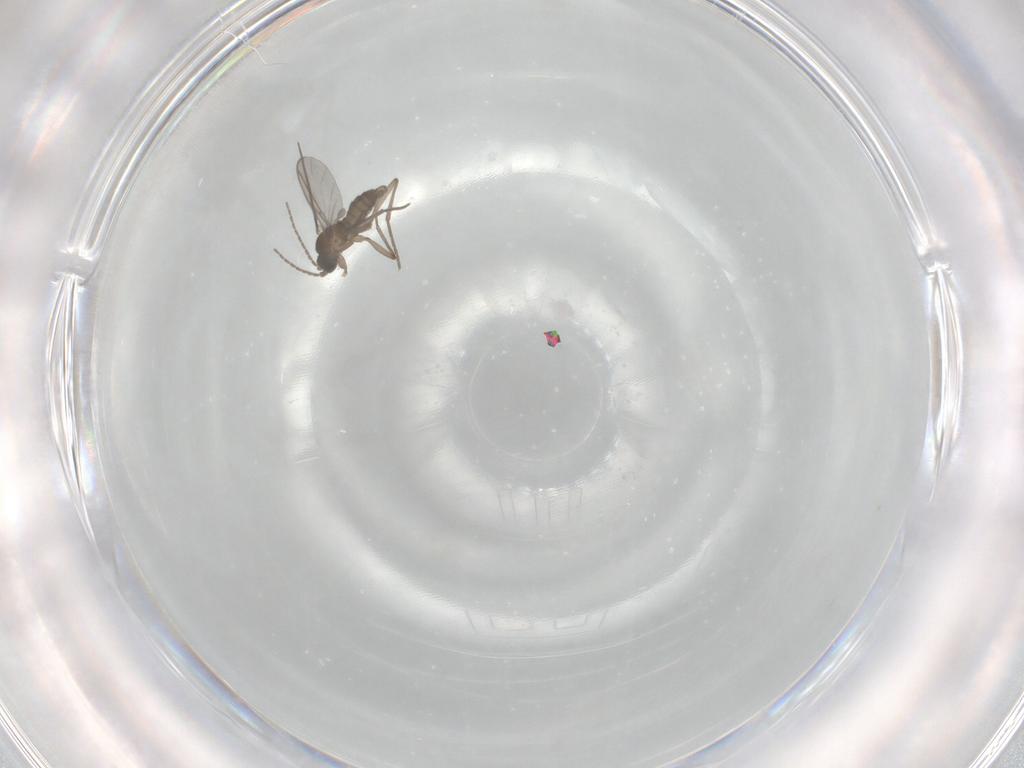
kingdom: Animalia
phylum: Arthropoda
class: Insecta
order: Diptera
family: Sciaridae
